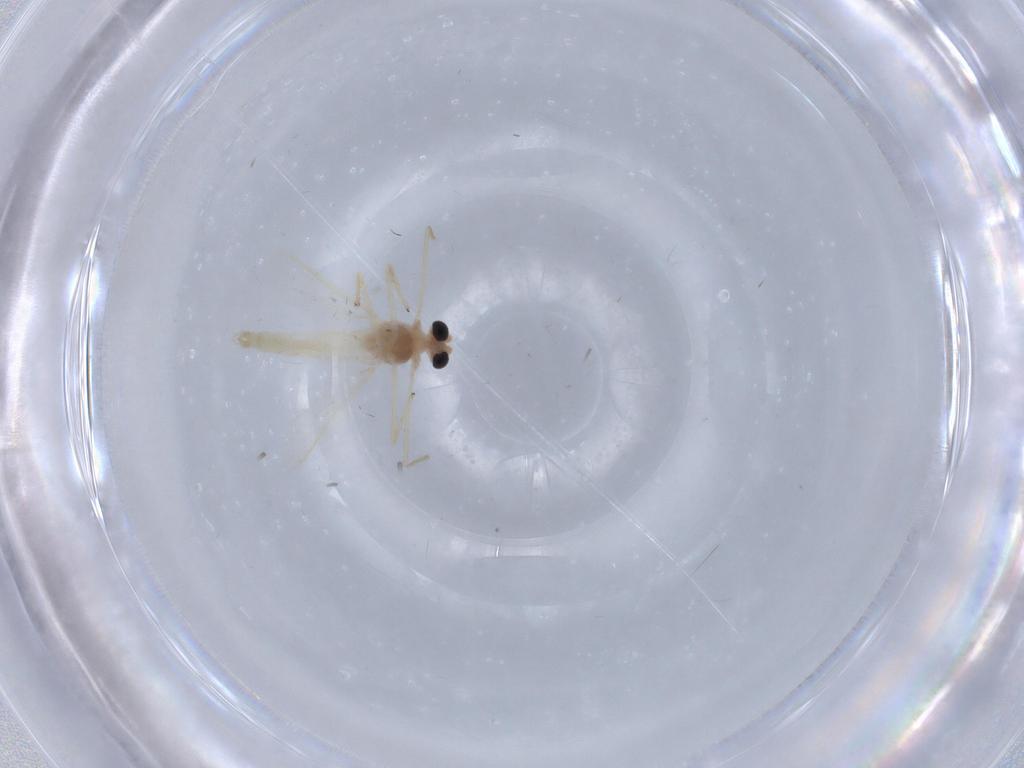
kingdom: Animalia
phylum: Arthropoda
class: Insecta
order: Diptera
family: Chironomidae
